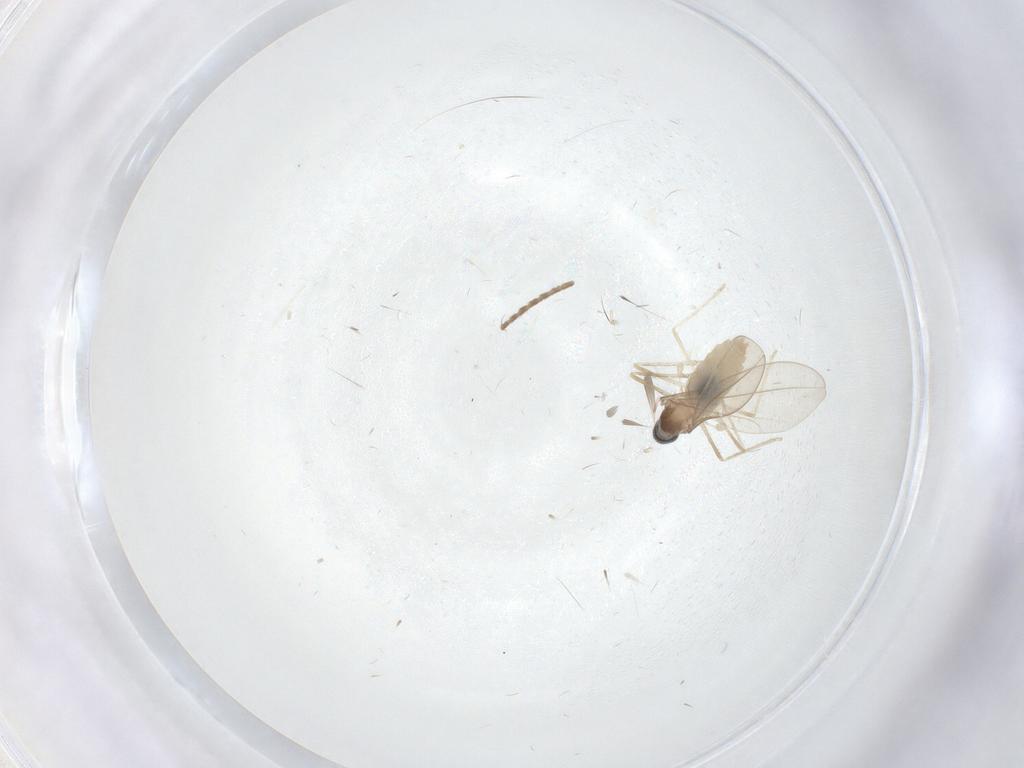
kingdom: Animalia
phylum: Arthropoda
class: Insecta
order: Diptera
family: Cecidomyiidae
